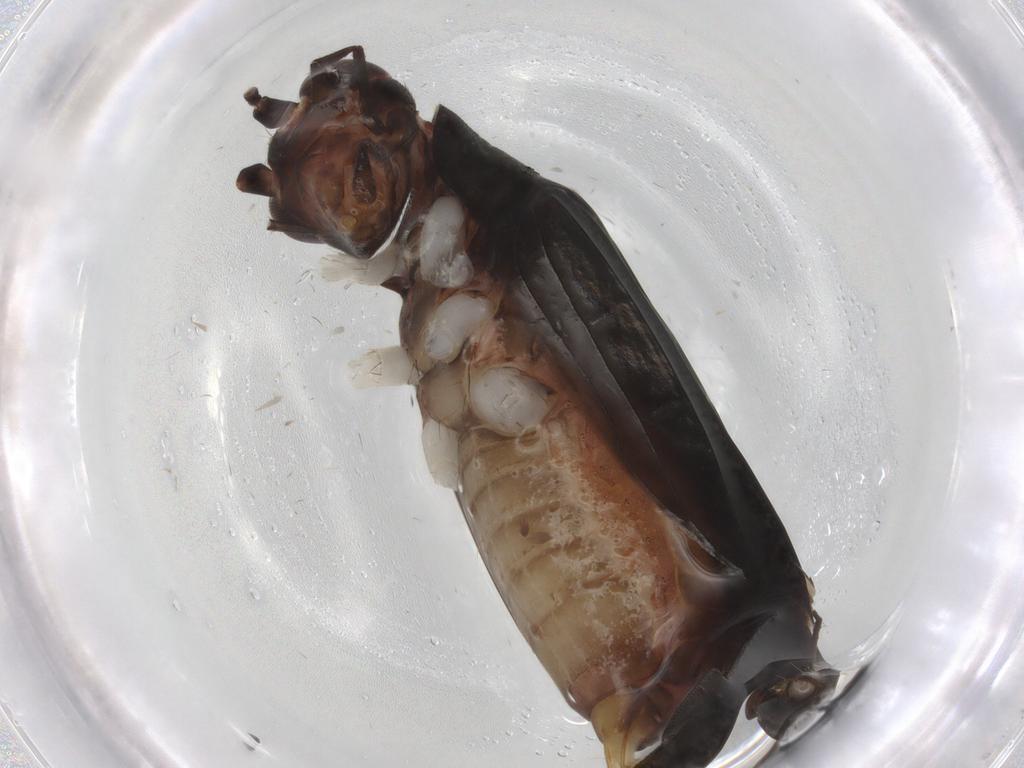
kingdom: Animalia
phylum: Arthropoda
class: Insecta
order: Orthoptera
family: Trigonidiidae
